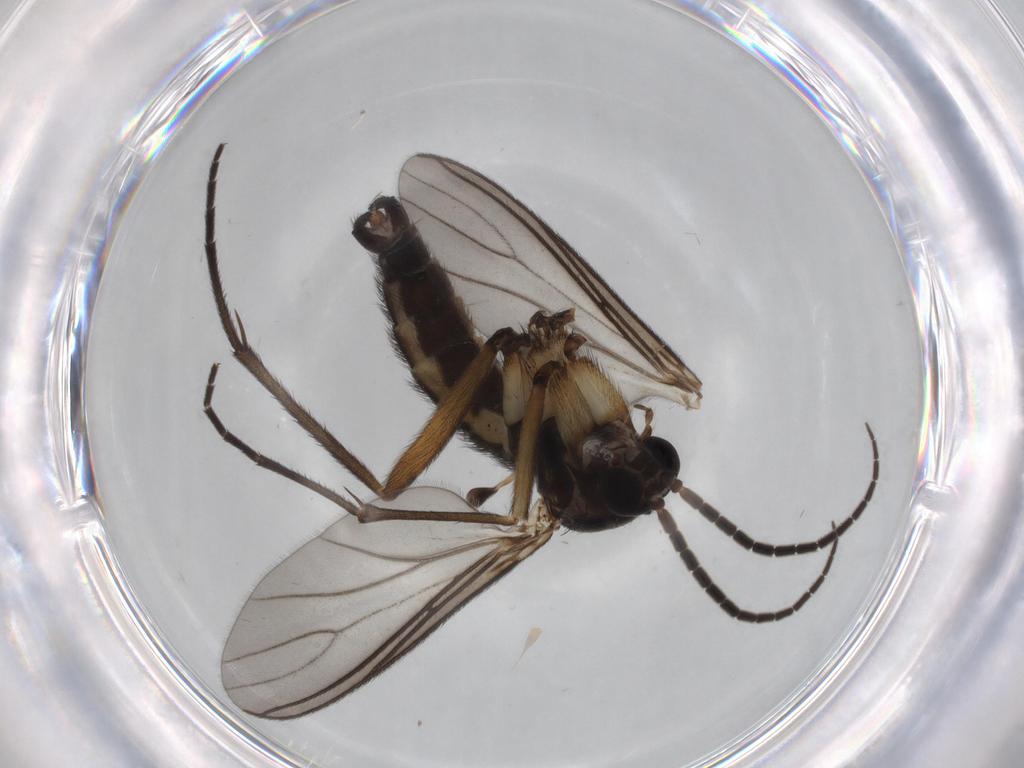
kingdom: Animalia
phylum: Arthropoda
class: Insecta
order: Diptera
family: Sciaridae
